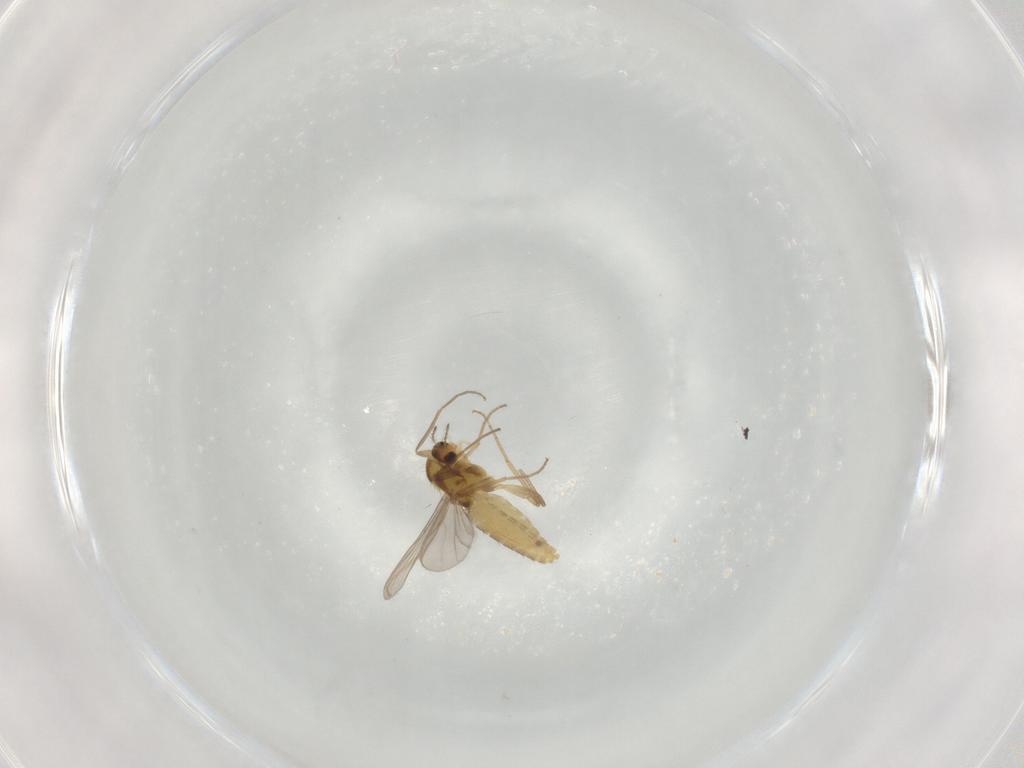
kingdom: Animalia
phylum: Arthropoda
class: Insecta
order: Diptera
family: Chironomidae
